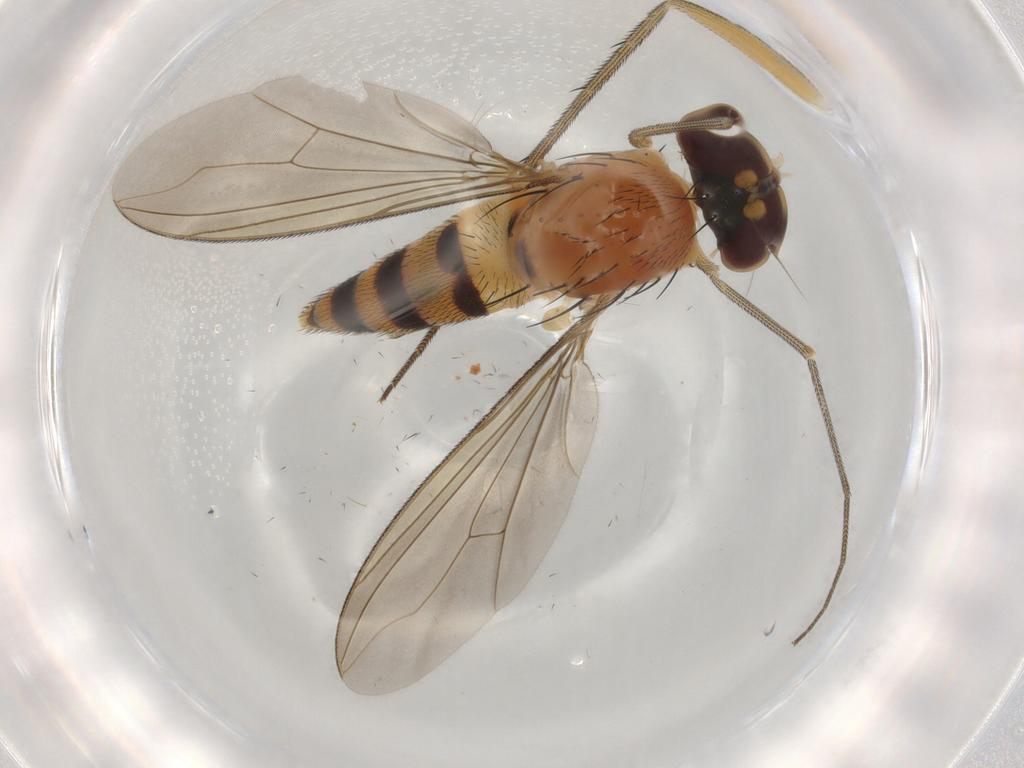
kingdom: Animalia
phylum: Arthropoda
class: Insecta
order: Diptera
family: Dolichopodidae
